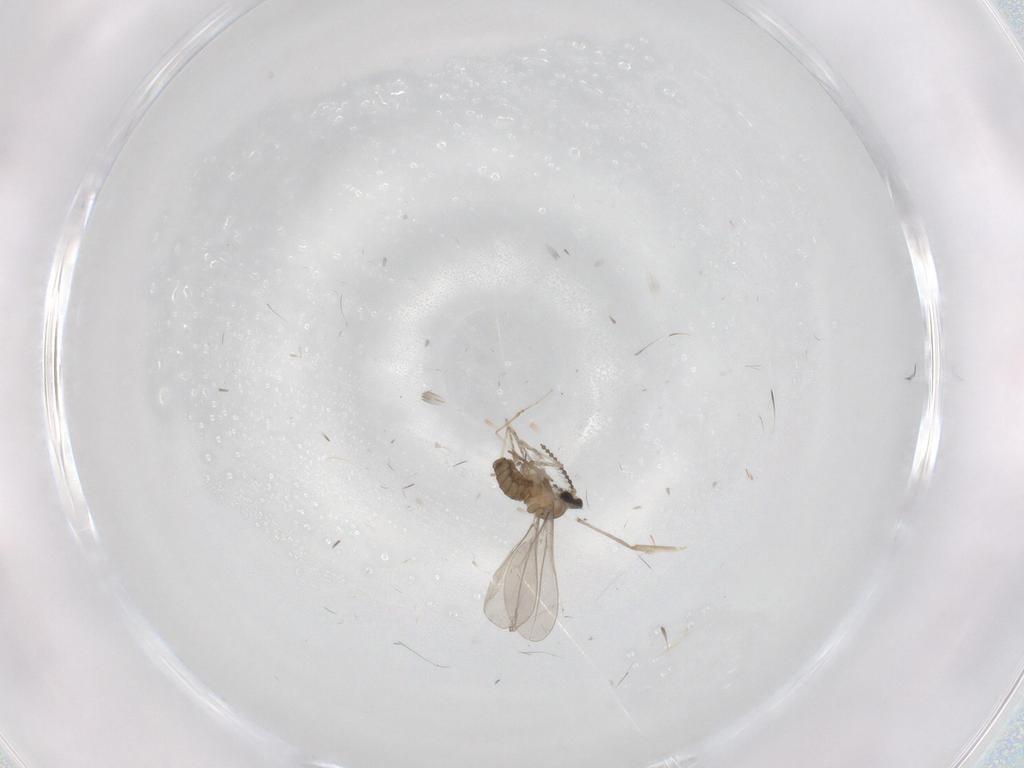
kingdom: Animalia
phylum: Arthropoda
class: Insecta
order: Diptera
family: Cecidomyiidae
